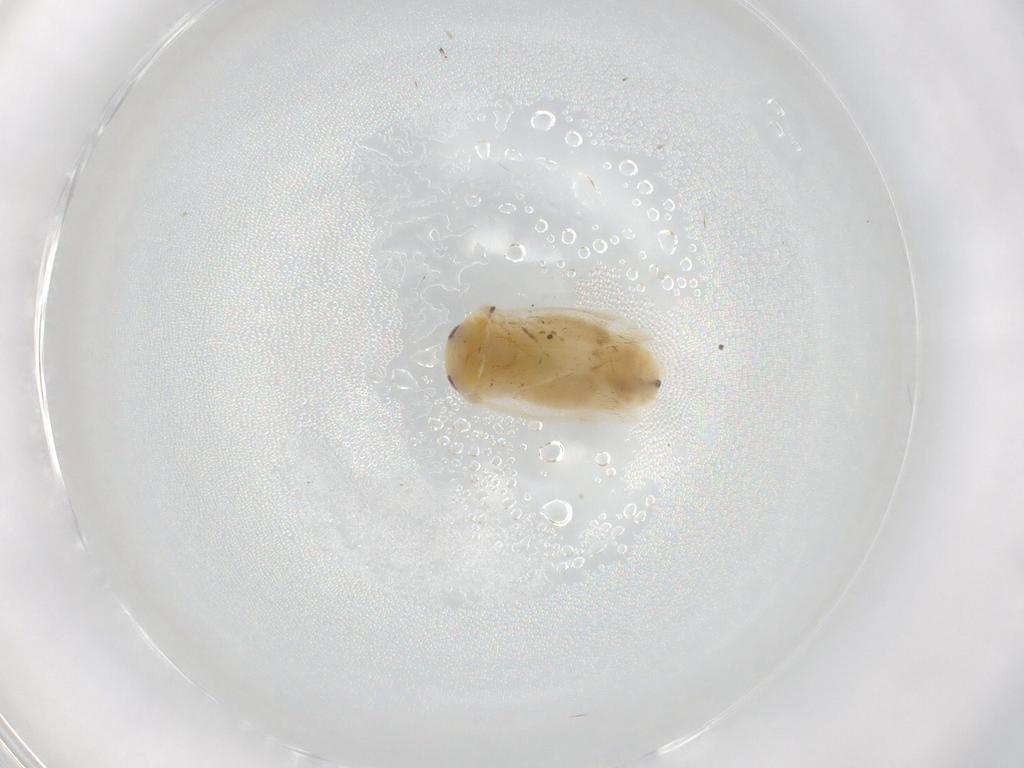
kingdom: Animalia
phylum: Arthropoda
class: Insecta
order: Hemiptera
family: Miridae
